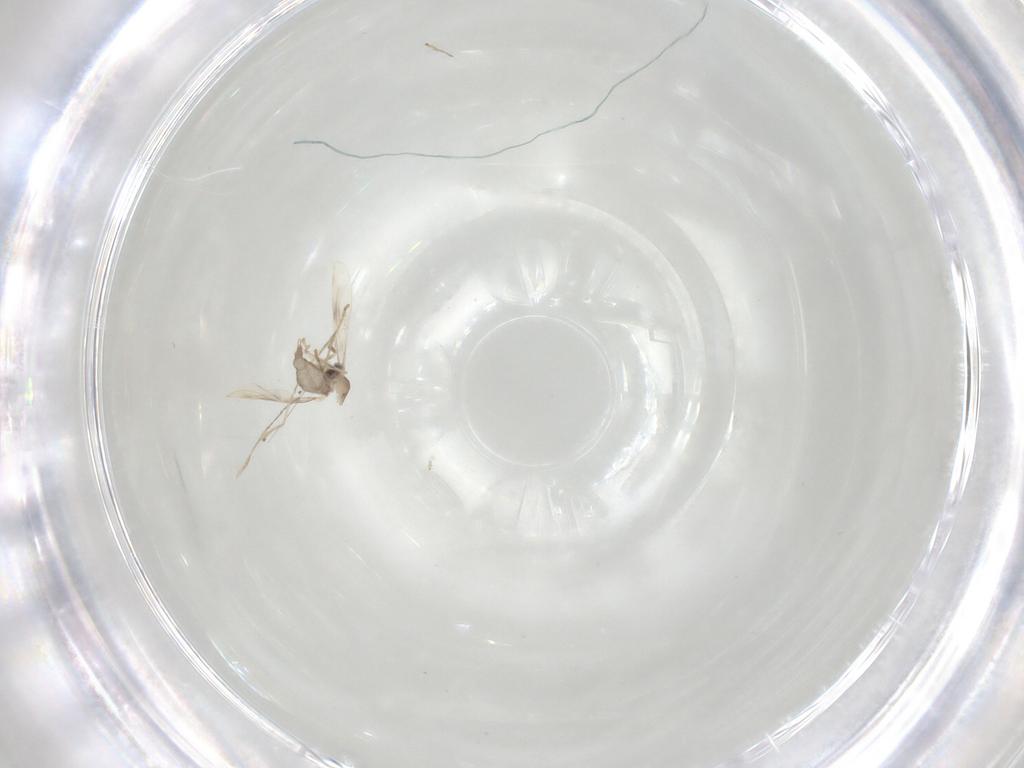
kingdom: Animalia
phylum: Arthropoda
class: Insecta
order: Diptera
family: Cecidomyiidae
